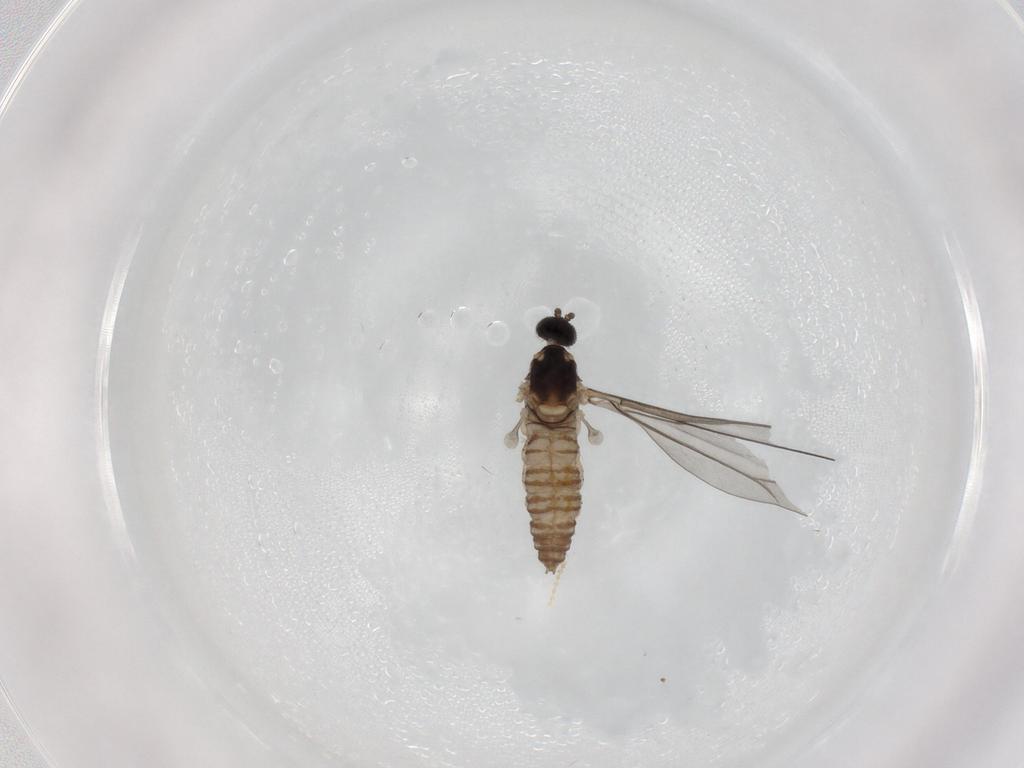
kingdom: Animalia
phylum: Arthropoda
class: Insecta
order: Diptera
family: Cecidomyiidae
